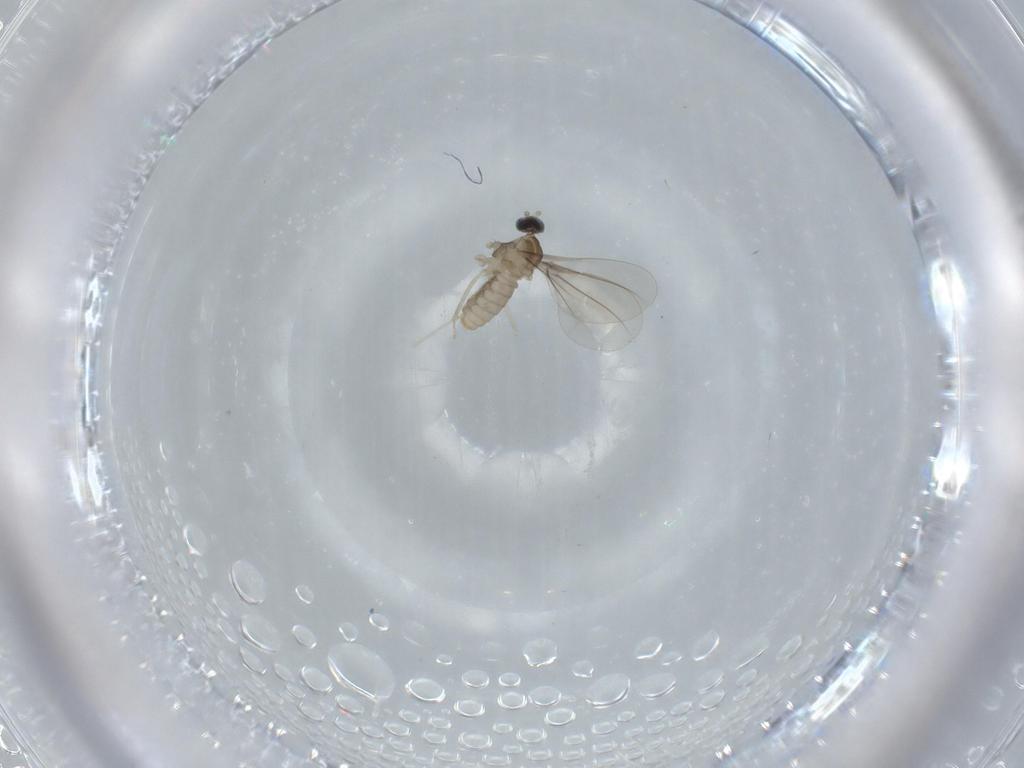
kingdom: Animalia
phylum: Arthropoda
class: Insecta
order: Diptera
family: Cecidomyiidae
